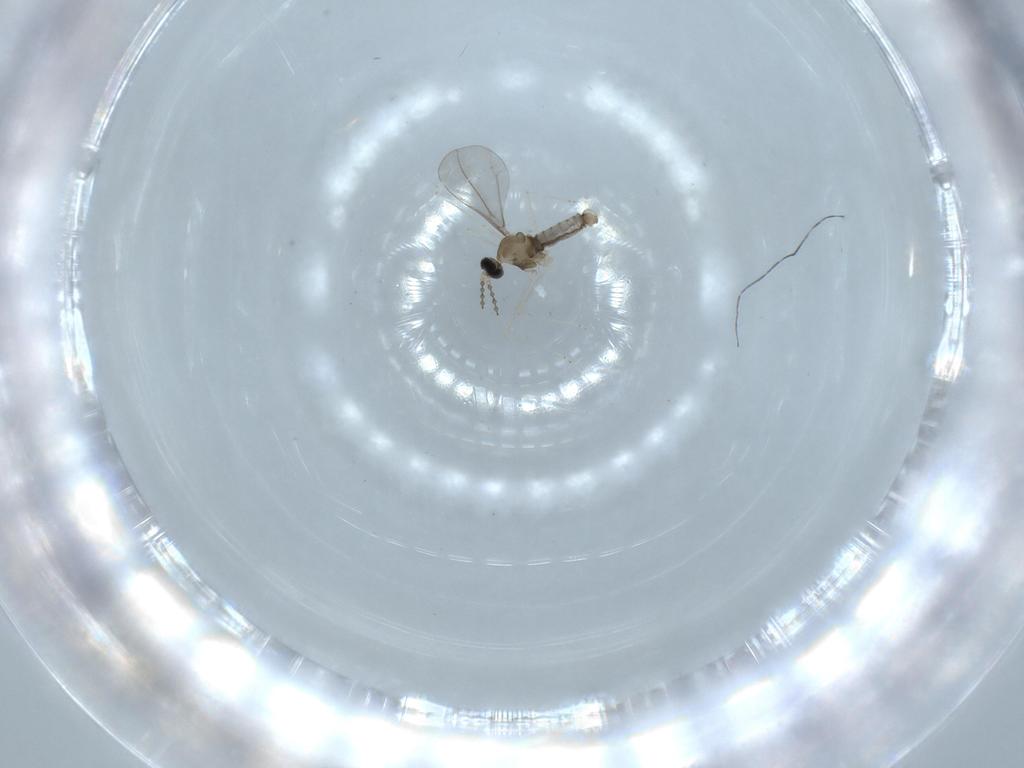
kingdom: Animalia
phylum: Arthropoda
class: Insecta
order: Diptera
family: Cecidomyiidae
